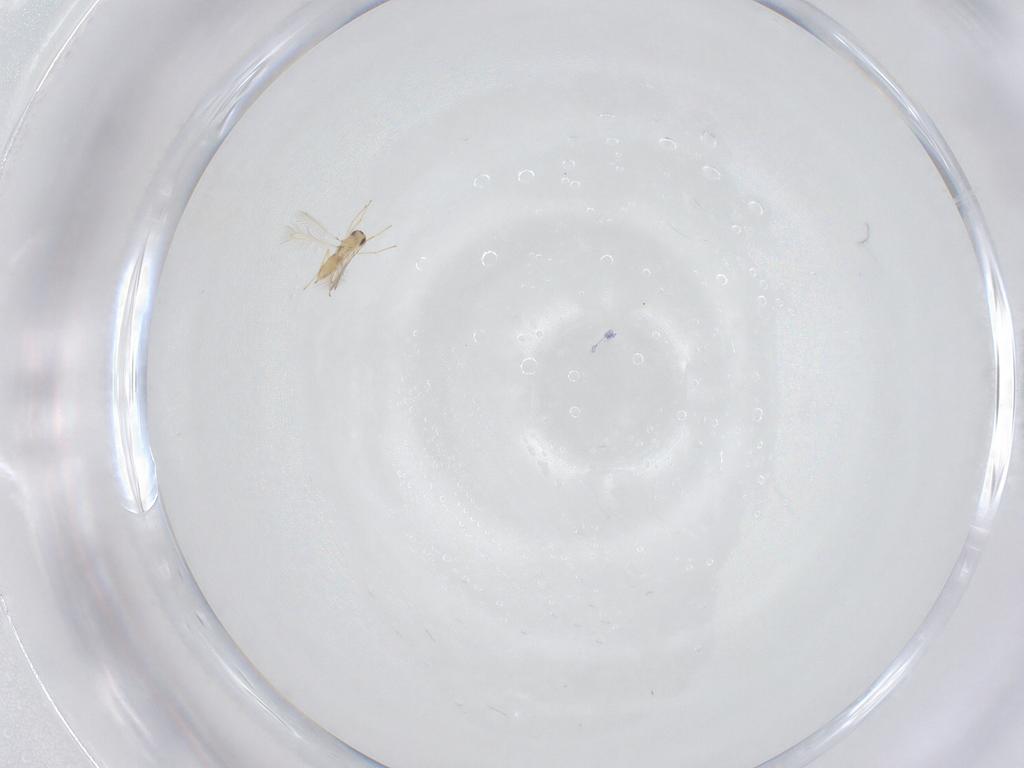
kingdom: Animalia
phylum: Arthropoda
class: Insecta
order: Hymenoptera
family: Mymaridae
